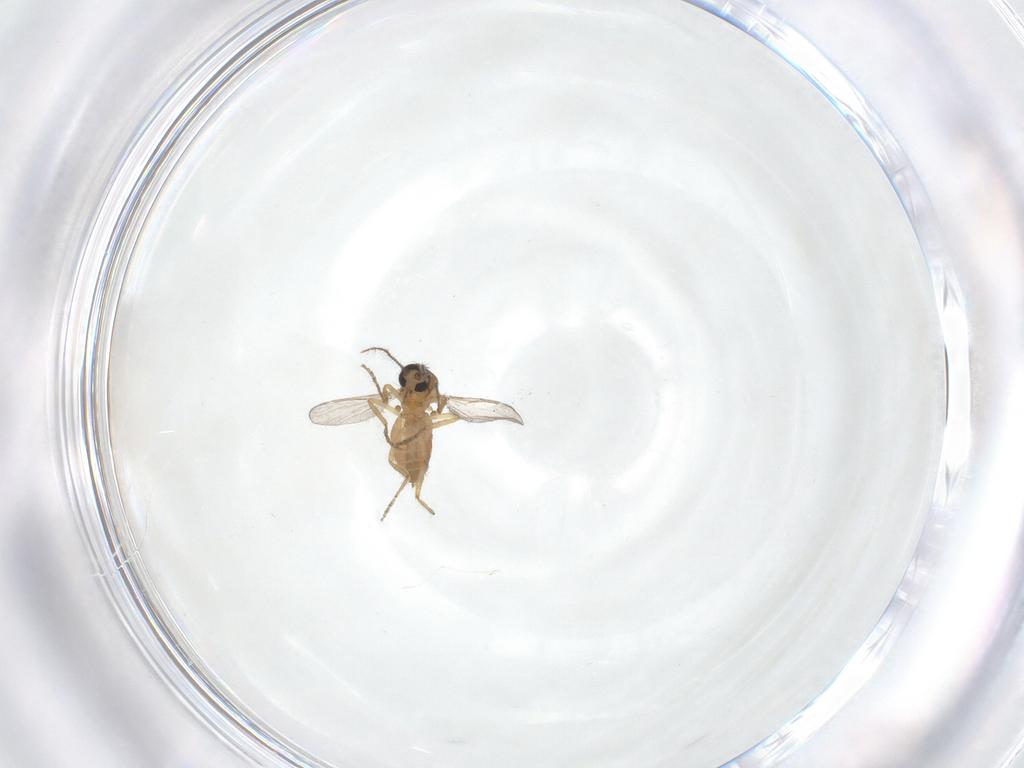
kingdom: Animalia
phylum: Arthropoda
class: Insecta
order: Diptera
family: Ceratopogonidae
